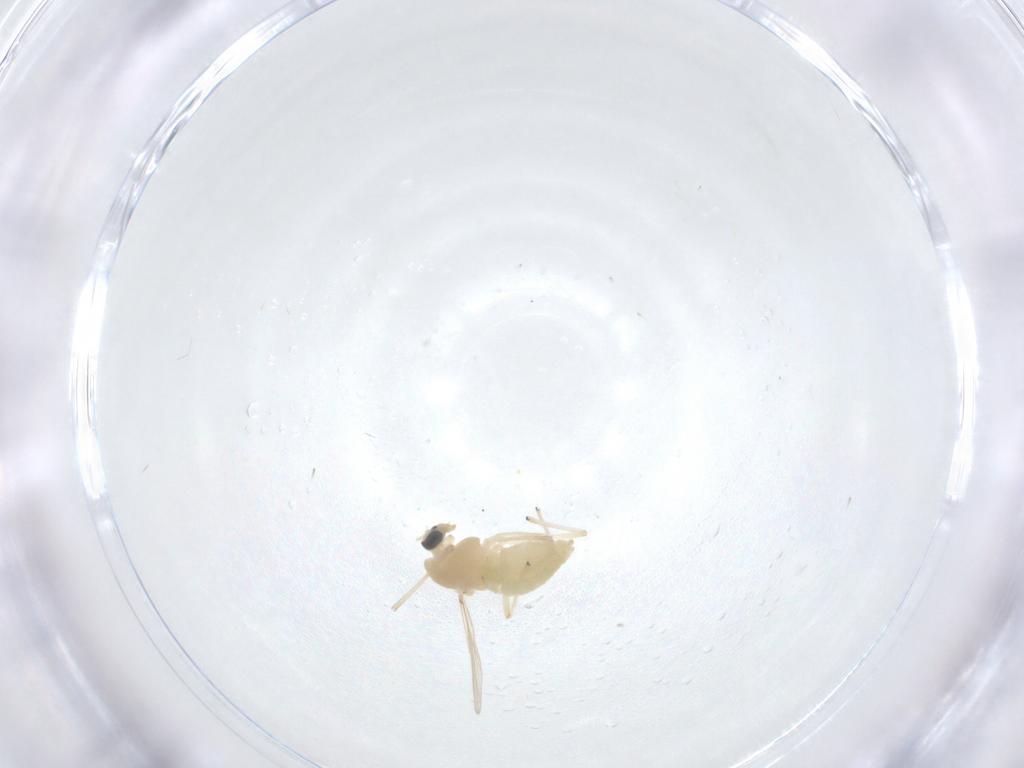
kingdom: Animalia
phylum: Arthropoda
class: Insecta
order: Diptera
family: Chironomidae
